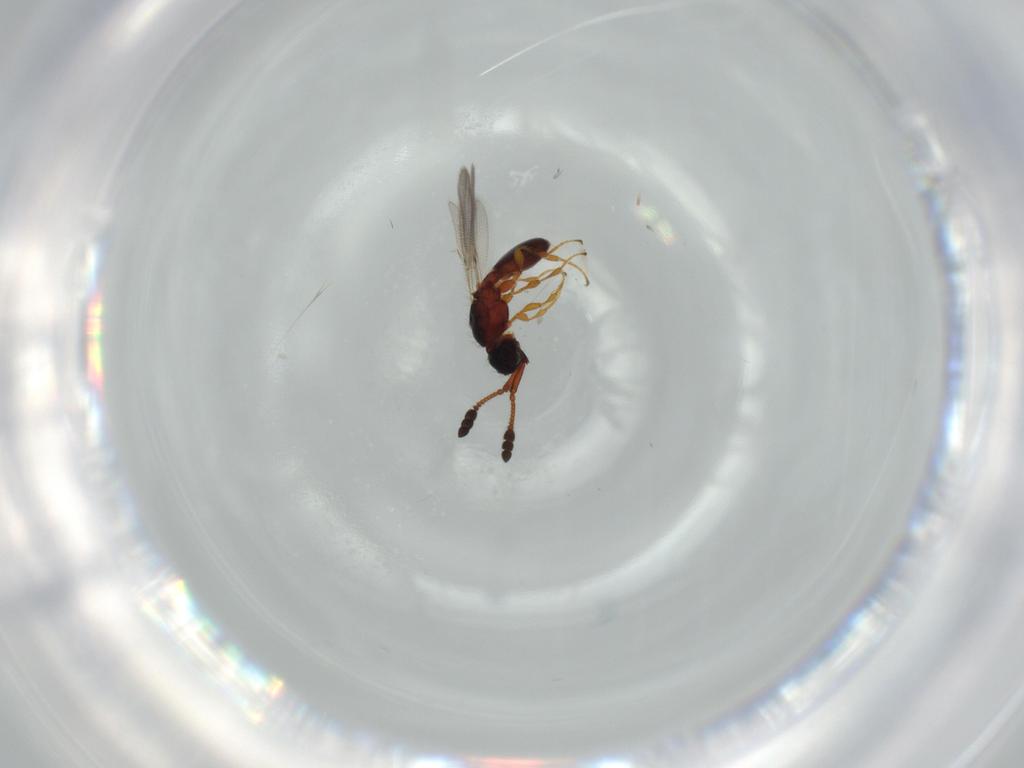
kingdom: Animalia
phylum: Arthropoda
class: Insecta
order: Hymenoptera
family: Diapriidae
